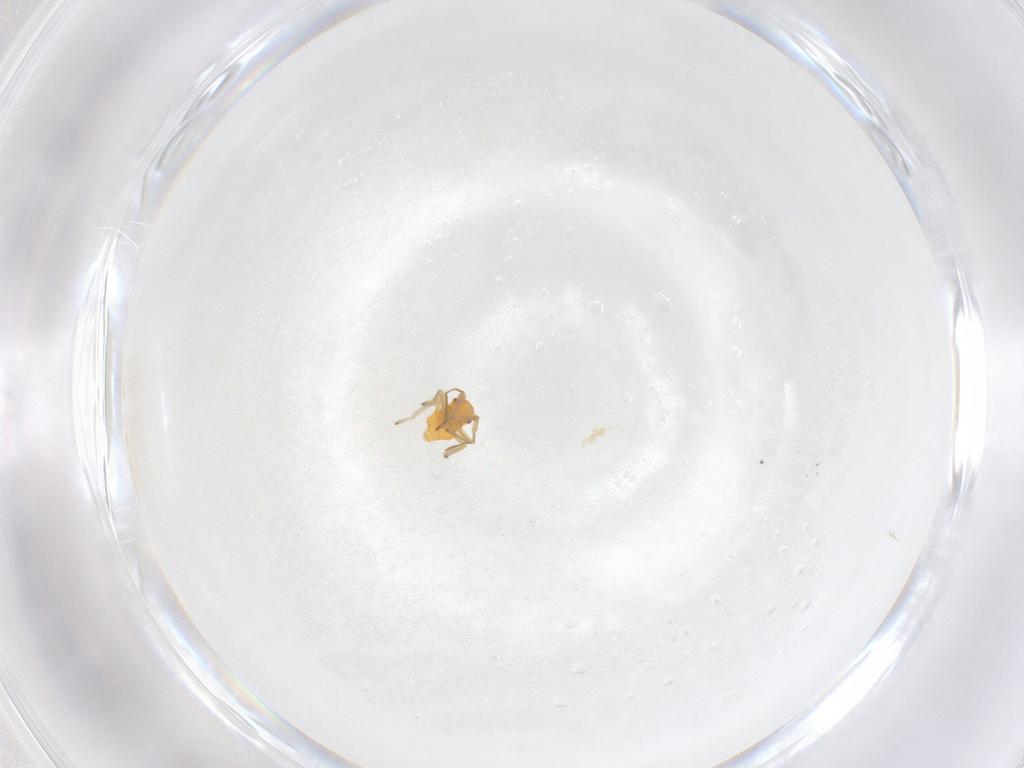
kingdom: Animalia
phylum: Arthropoda
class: Insecta
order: Hemiptera
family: Miridae
